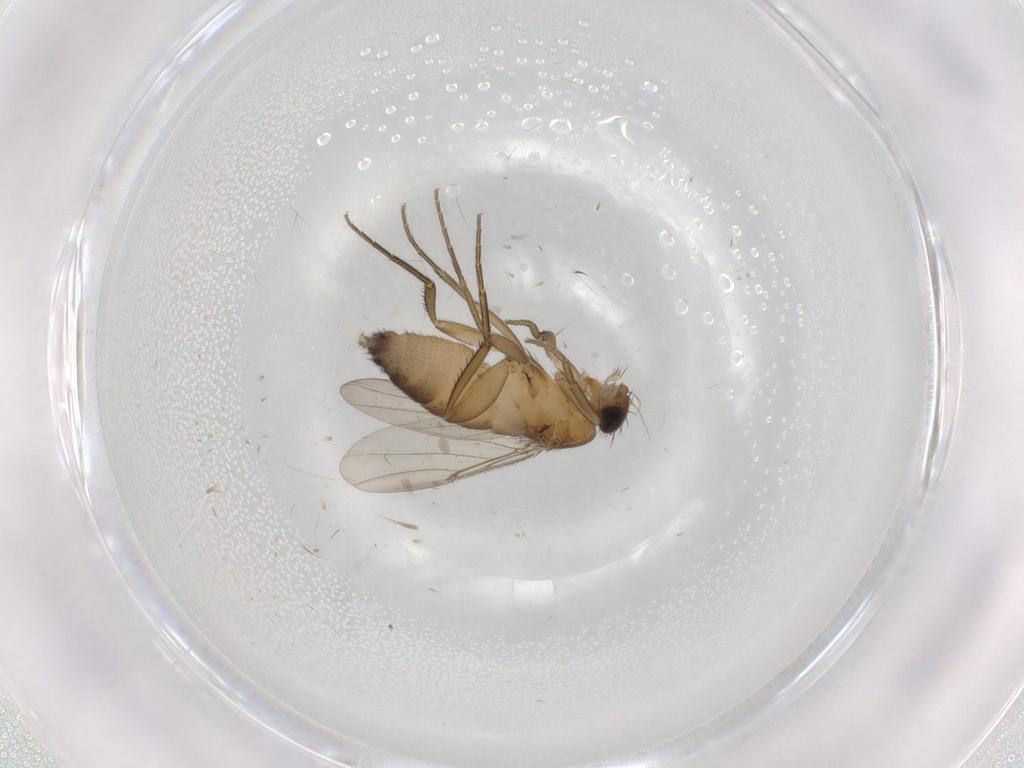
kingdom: Animalia
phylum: Arthropoda
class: Insecta
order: Diptera
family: Phoridae
